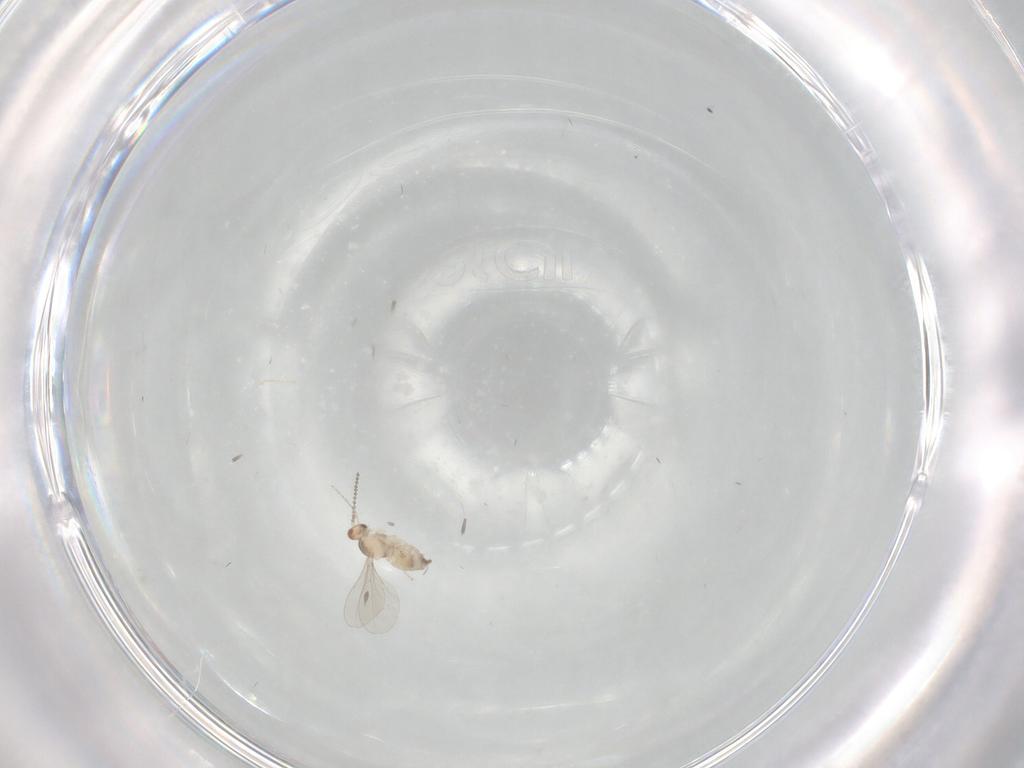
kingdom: Animalia
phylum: Arthropoda
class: Insecta
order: Diptera
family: Cecidomyiidae
